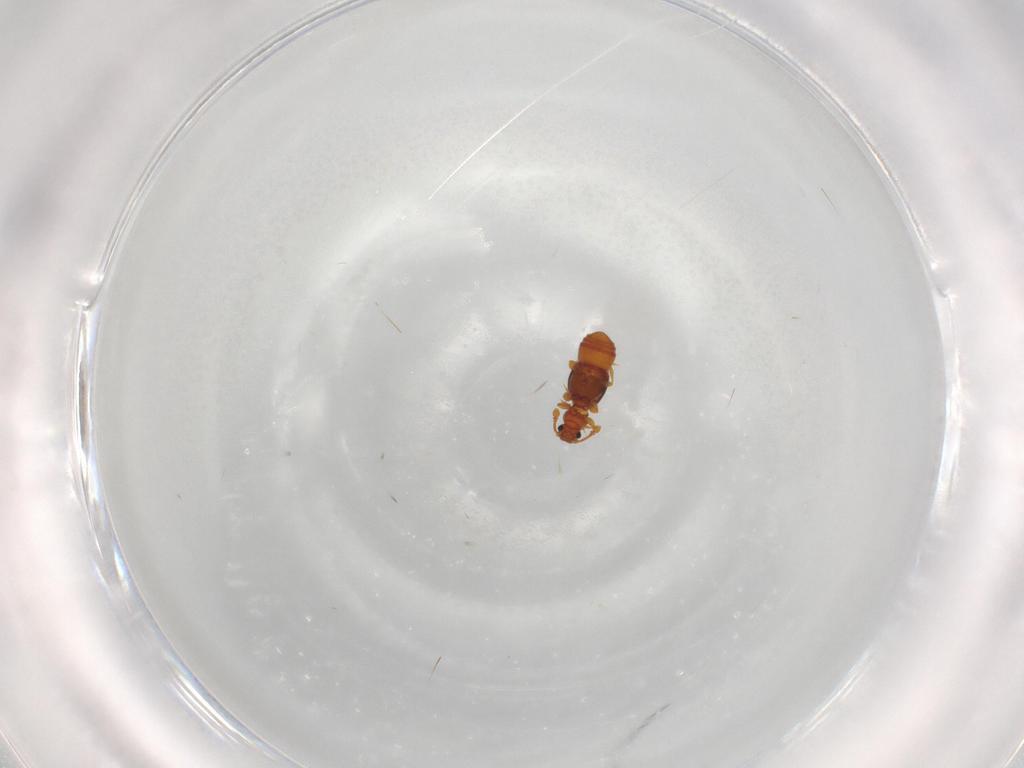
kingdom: Animalia
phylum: Arthropoda
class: Insecta
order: Coleoptera
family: Staphylinidae
